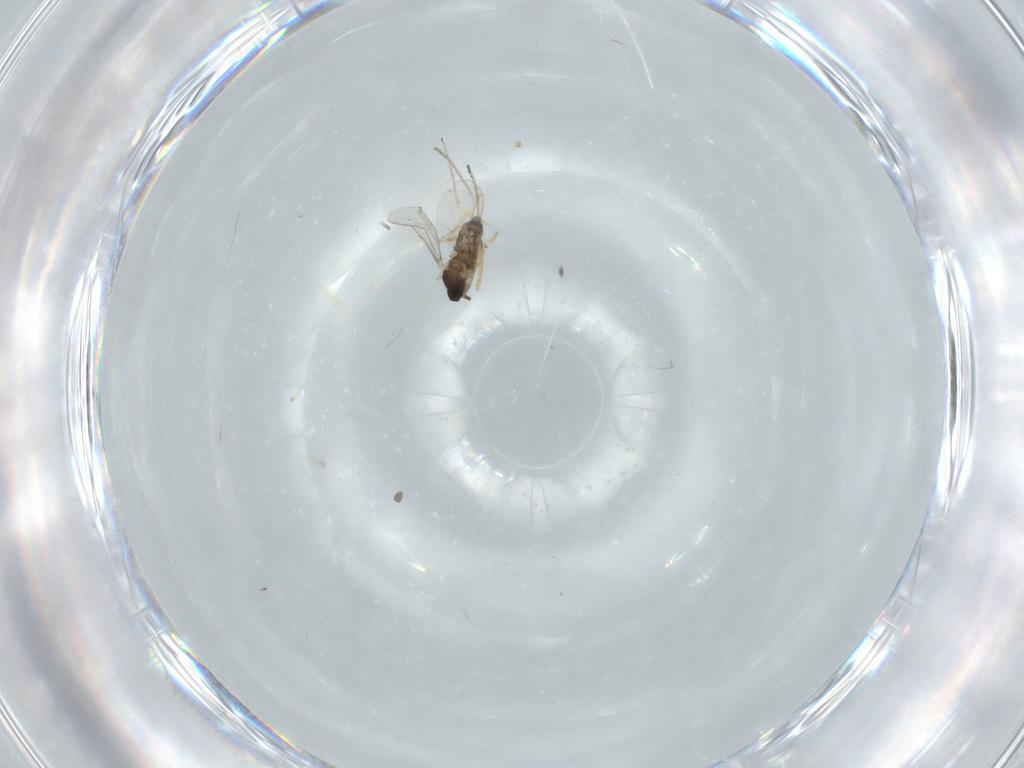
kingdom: Animalia
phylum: Arthropoda
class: Insecta
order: Diptera
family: Cecidomyiidae
